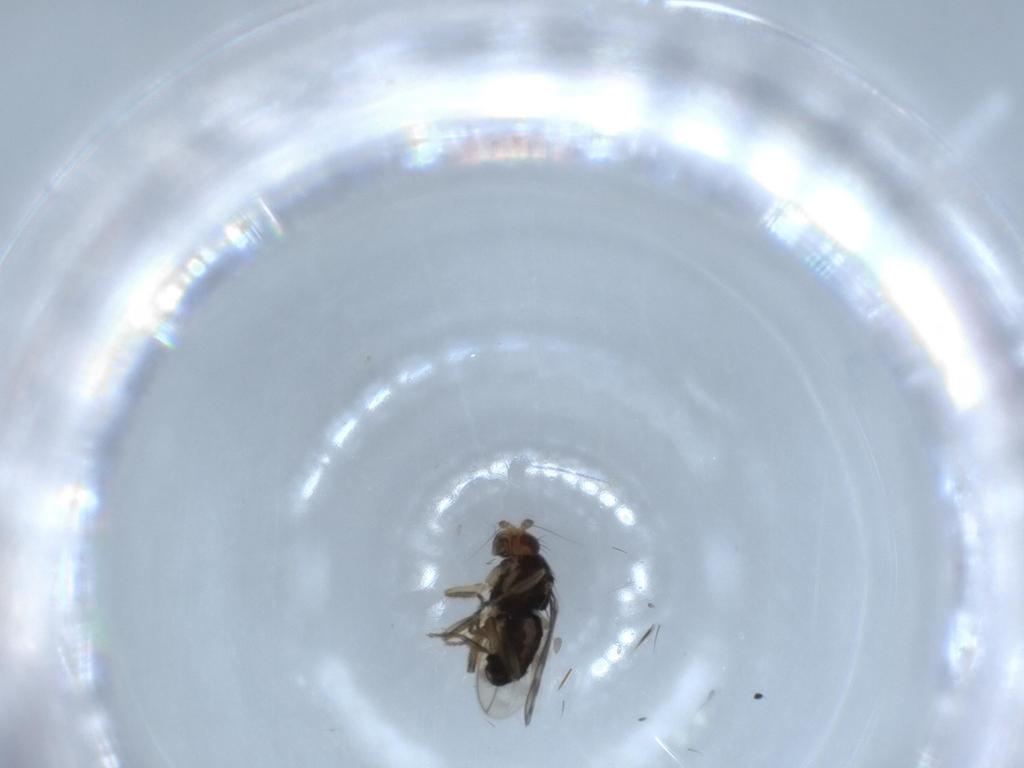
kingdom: Animalia
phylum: Arthropoda
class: Insecta
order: Diptera
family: Sphaeroceridae
